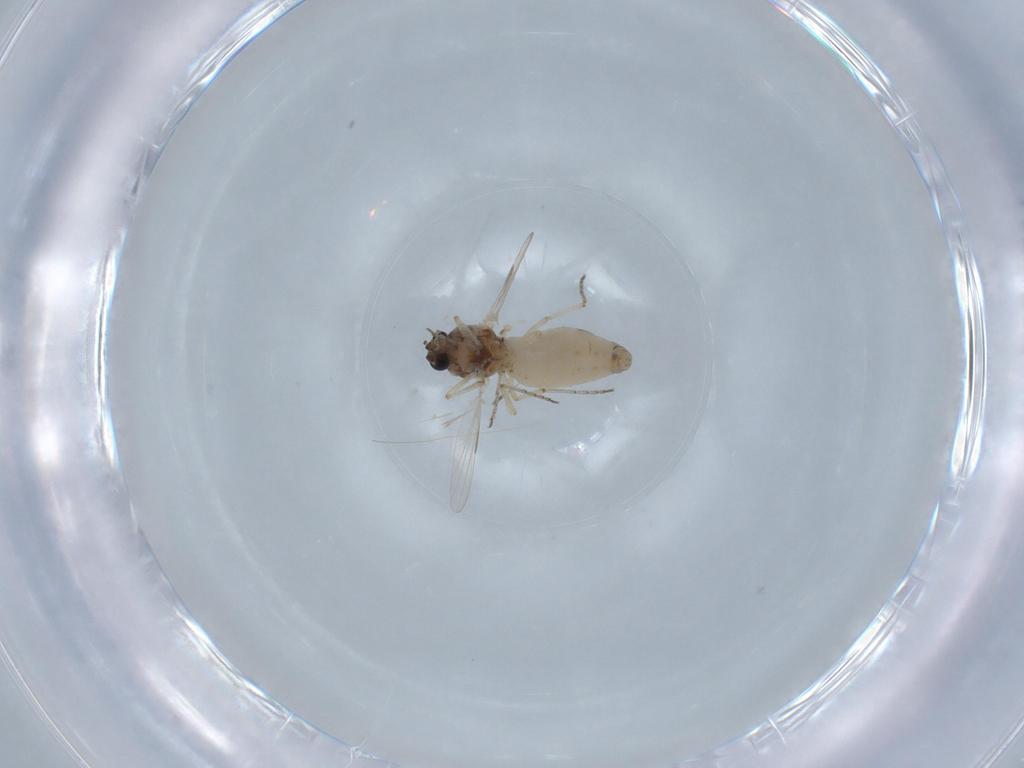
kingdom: Animalia
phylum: Arthropoda
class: Insecta
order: Diptera
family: Ceratopogonidae
